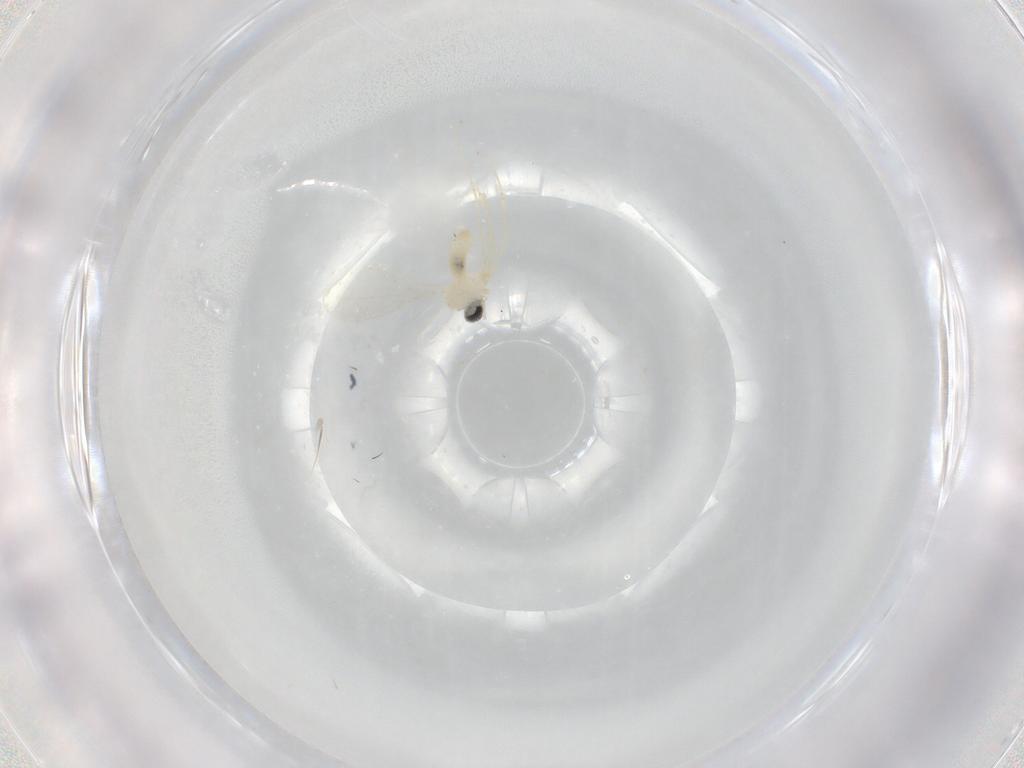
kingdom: Animalia
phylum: Arthropoda
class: Insecta
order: Diptera
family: Cecidomyiidae
